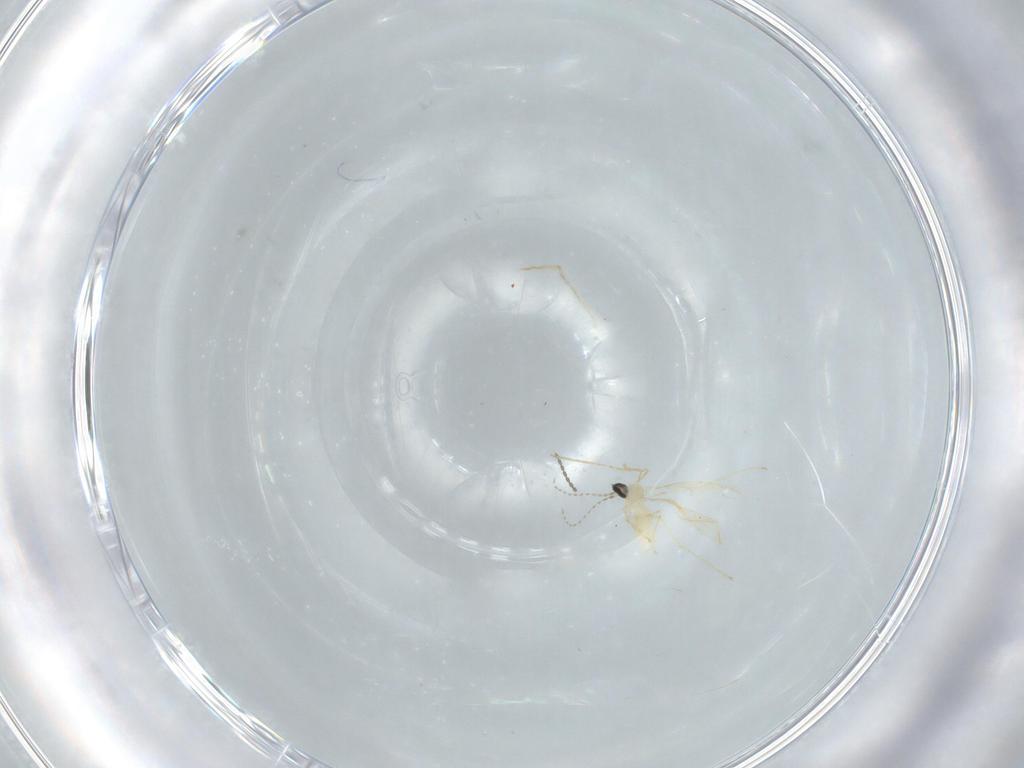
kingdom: Animalia
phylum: Arthropoda
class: Insecta
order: Diptera
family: Cecidomyiidae
